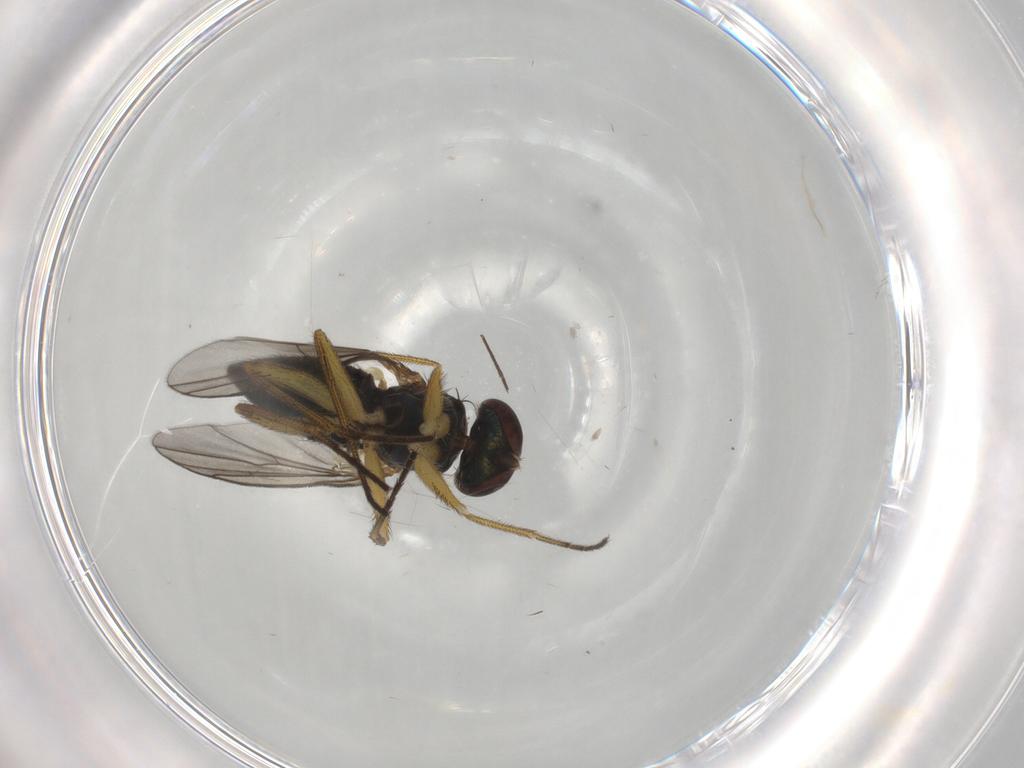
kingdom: Animalia
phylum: Arthropoda
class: Insecta
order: Diptera
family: Dolichopodidae
